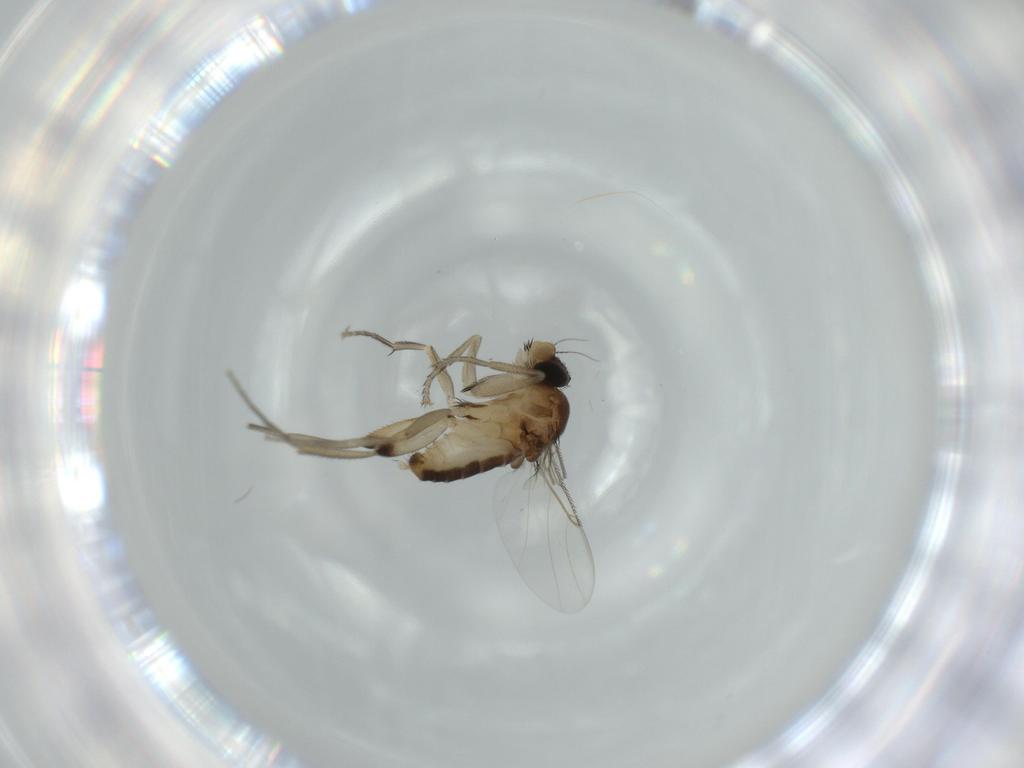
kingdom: Animalia
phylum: Arthropoda
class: Insecta
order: Diptera
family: Phoridae
